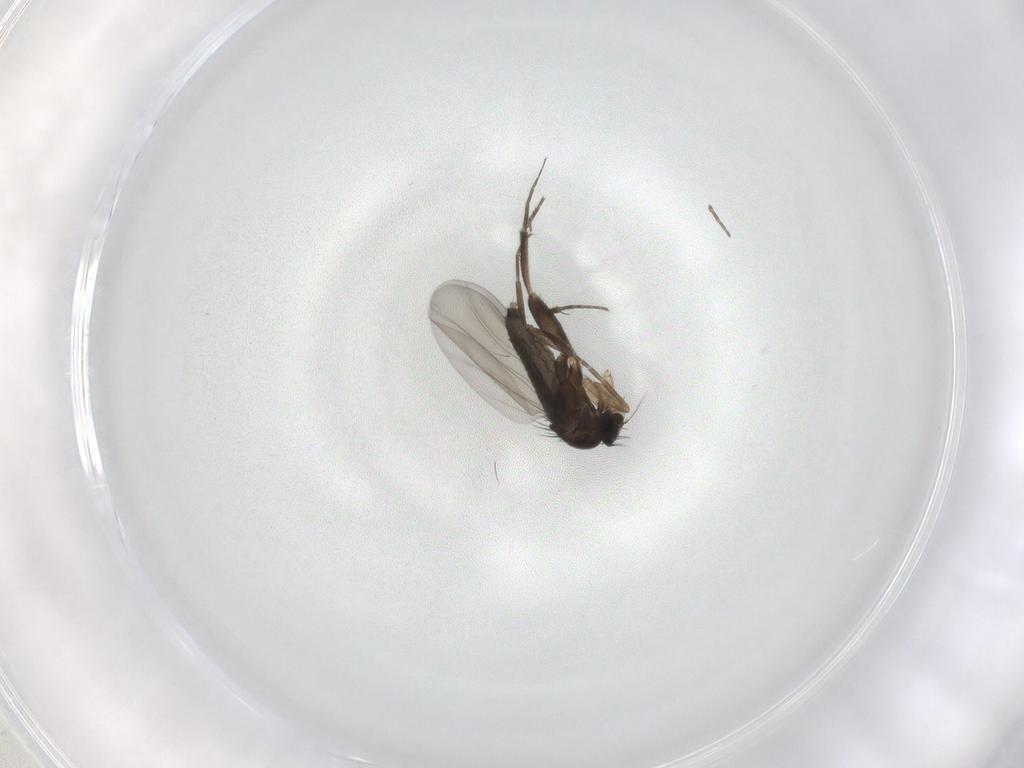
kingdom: Animalia
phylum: Arthropoda
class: Insecta
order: Diptera
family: Phoridae
